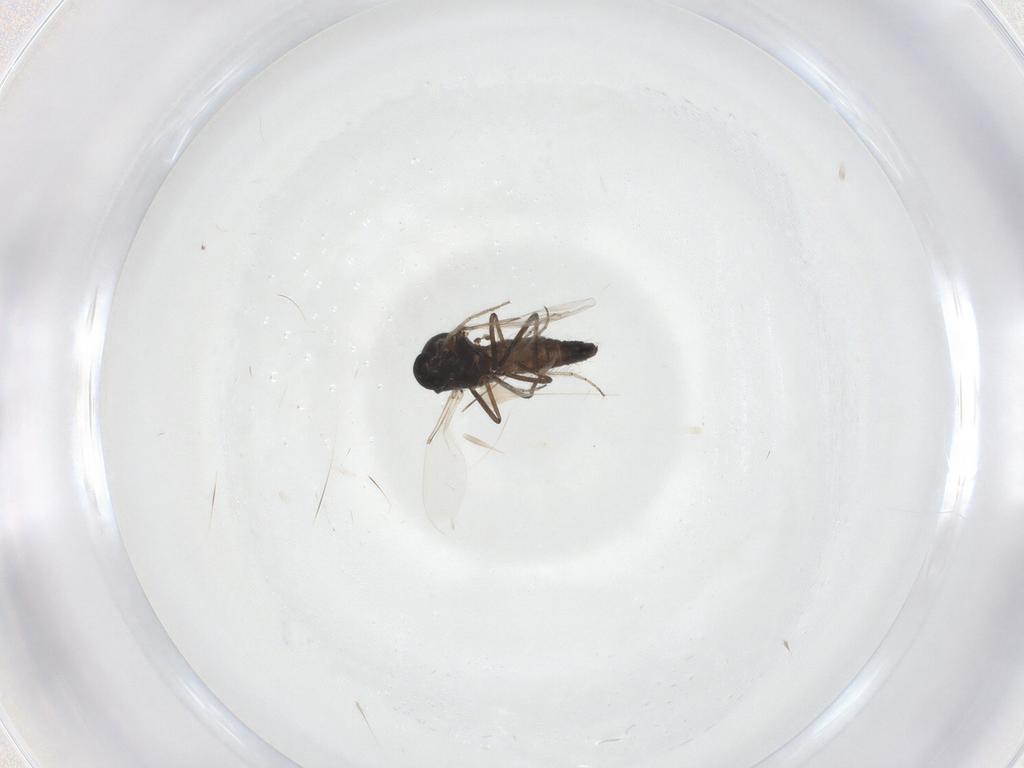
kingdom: Animalia
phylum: Arthropoda
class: Insecta
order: Diptera
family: Ceratopogonidae
